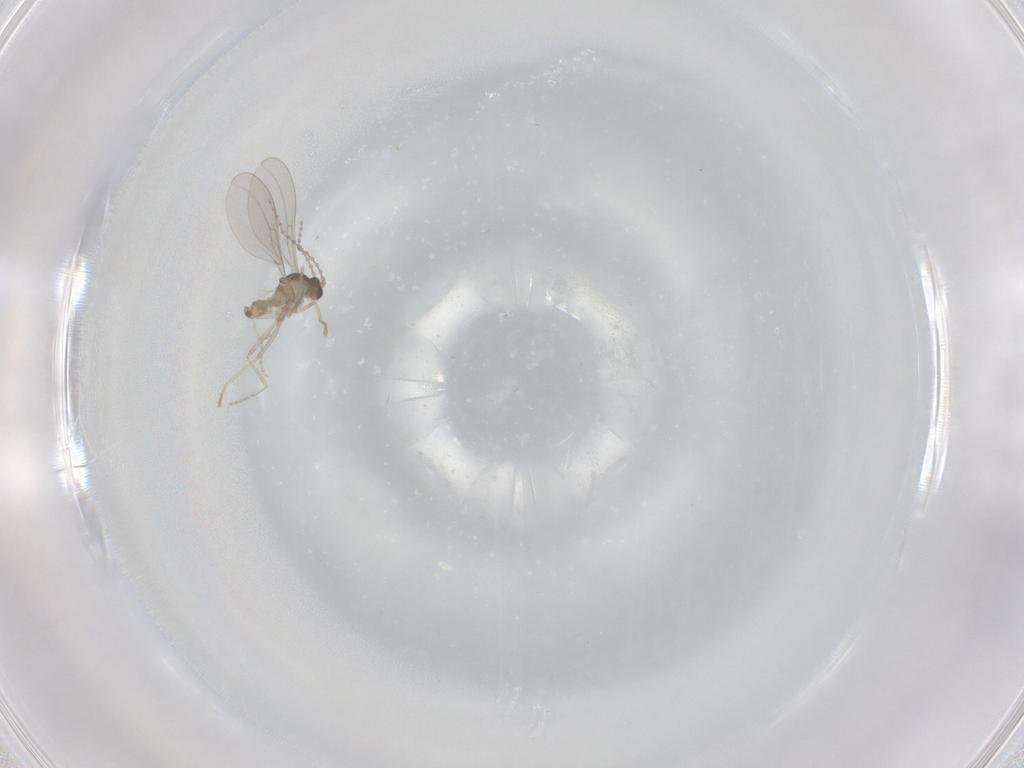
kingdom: Animalia
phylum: Arthropoda
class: Insecta
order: Diptera
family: Cecidomyiidae
